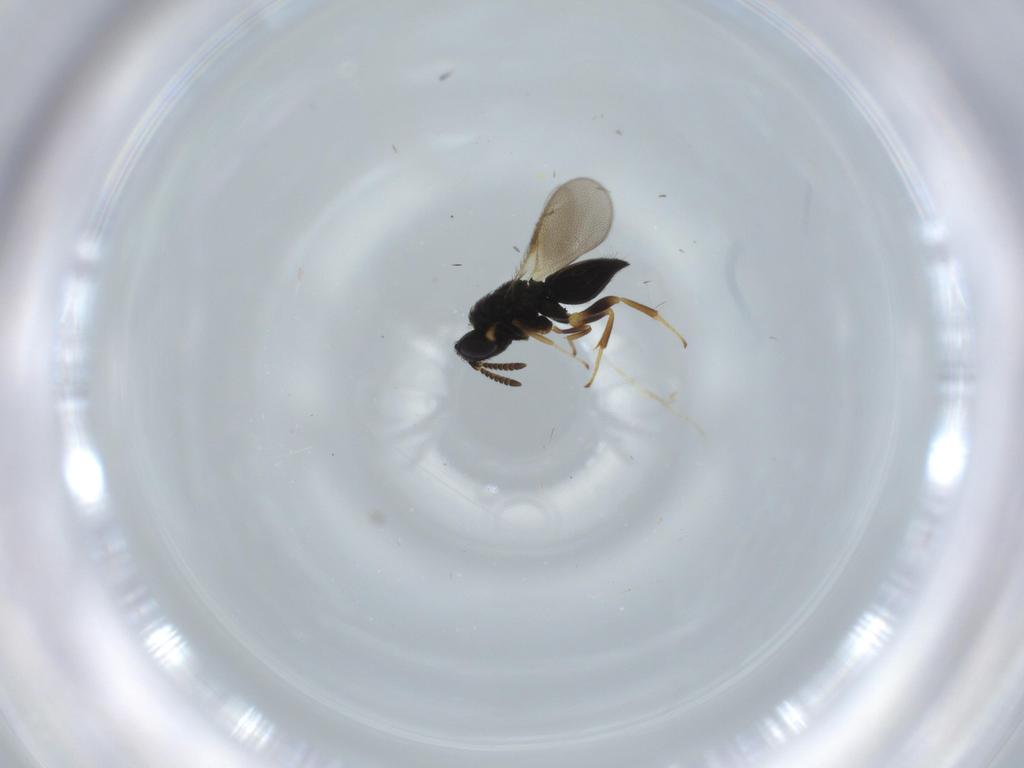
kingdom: Animalia
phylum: Arthropoda
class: Insecta
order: Hymenoptera
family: Pteromalidae
